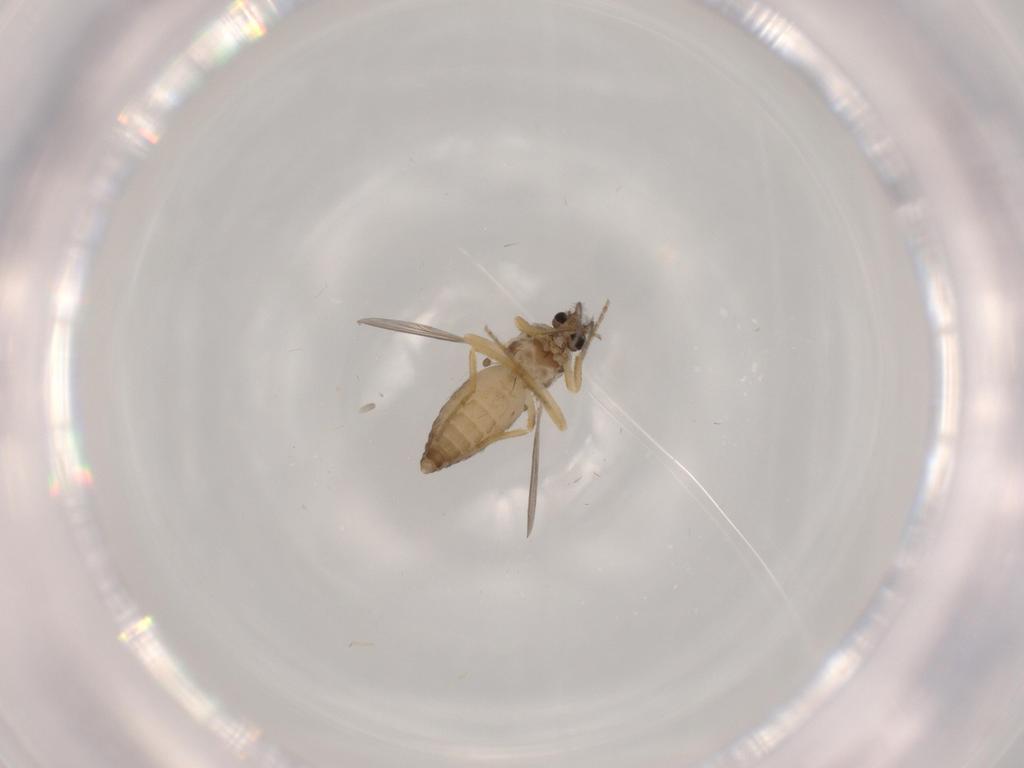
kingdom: Animalia
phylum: Arthropoda
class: Insecta
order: Diptera
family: Ceratopogonidae
